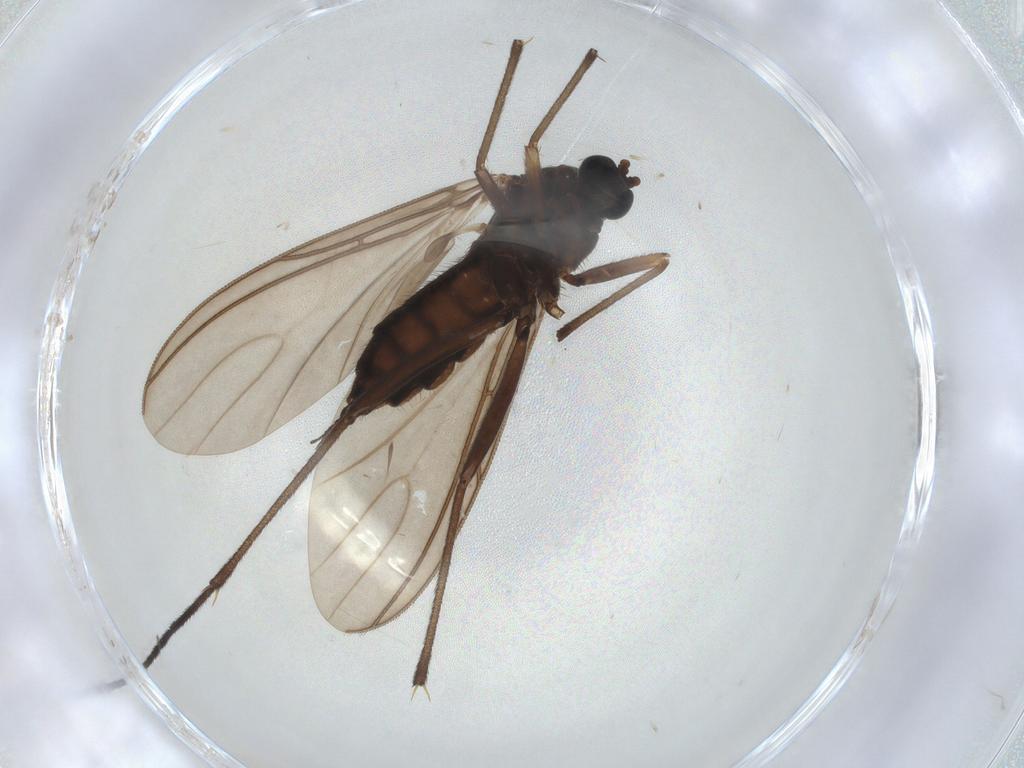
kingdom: Animalia
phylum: Arthropoda
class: Insecta
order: Diptera
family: Sciaridae
